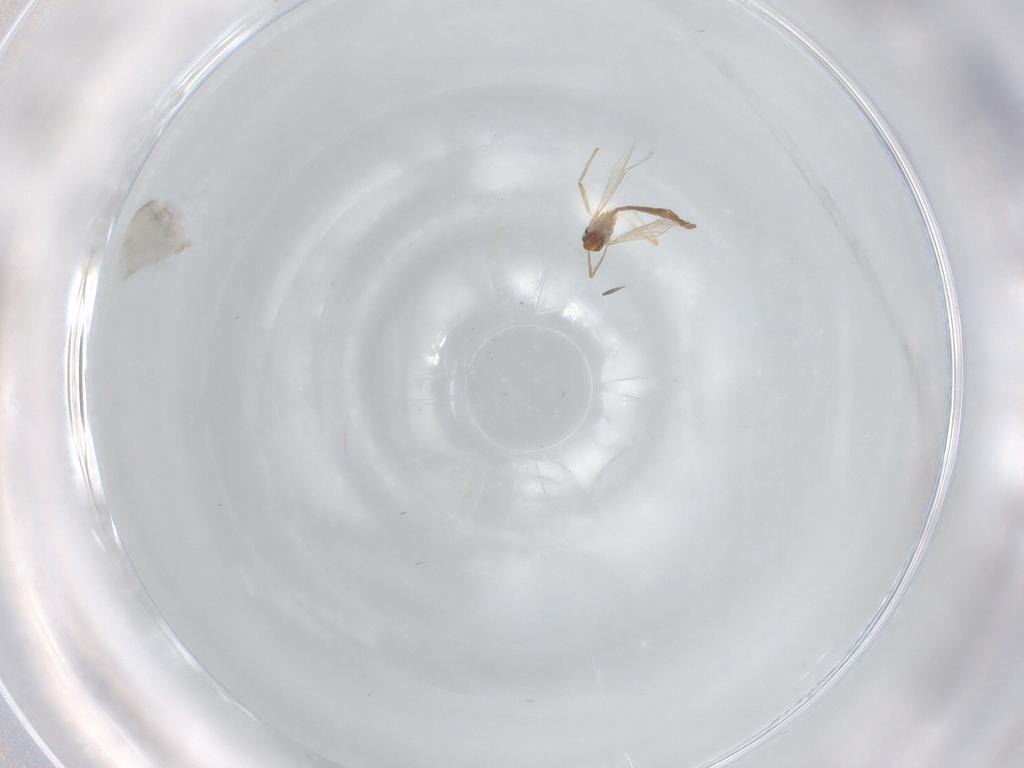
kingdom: Animalia
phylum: Arthropoda
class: Insecta
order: Diptera
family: Chironomidae
